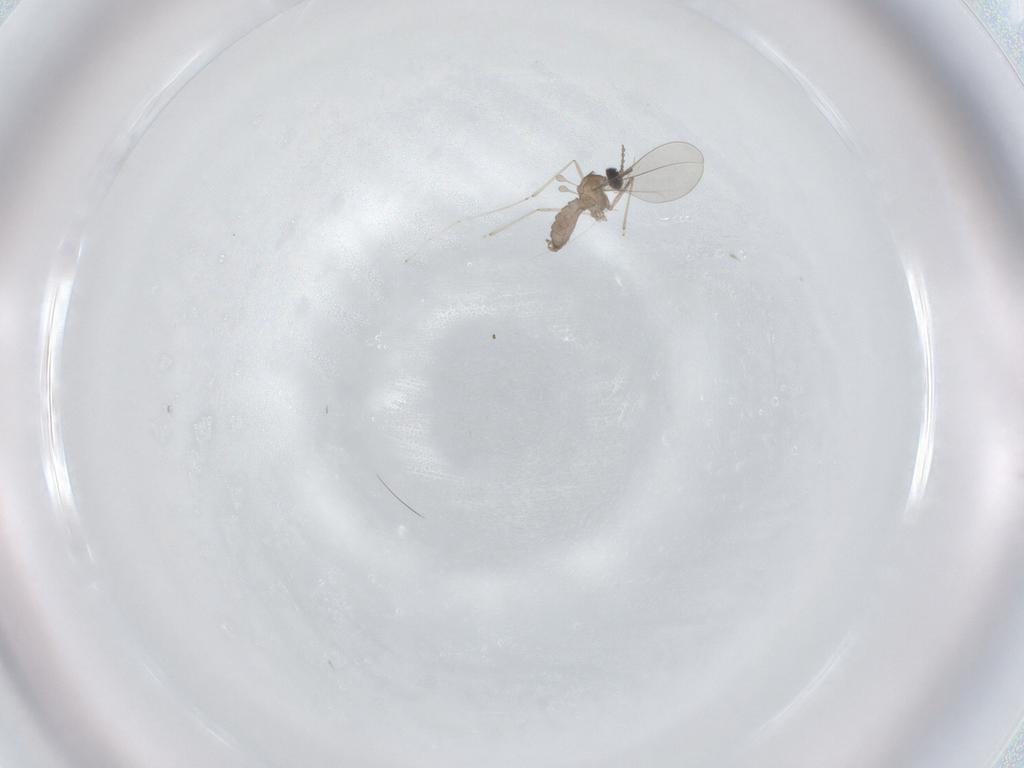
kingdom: Animalia
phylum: Arthropoda
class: Insecta
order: Diptera
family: Cecidomyiidae
